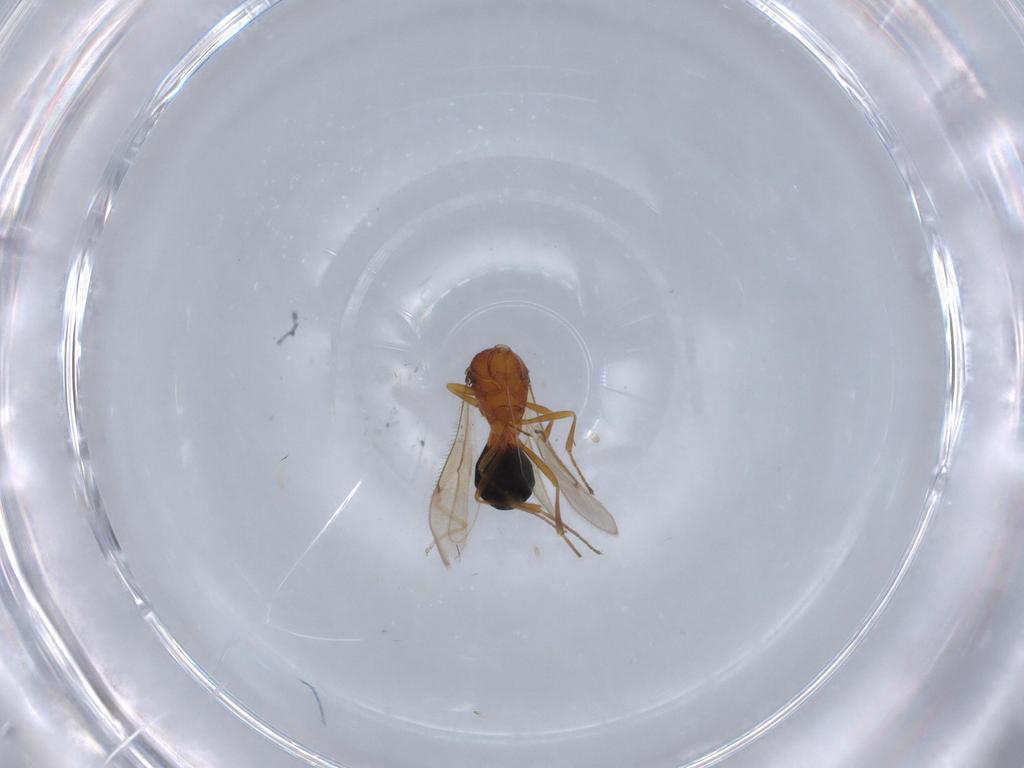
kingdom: Animalia
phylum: Arthropoda
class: Insecta
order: Hymenoptera
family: Scelionidae
